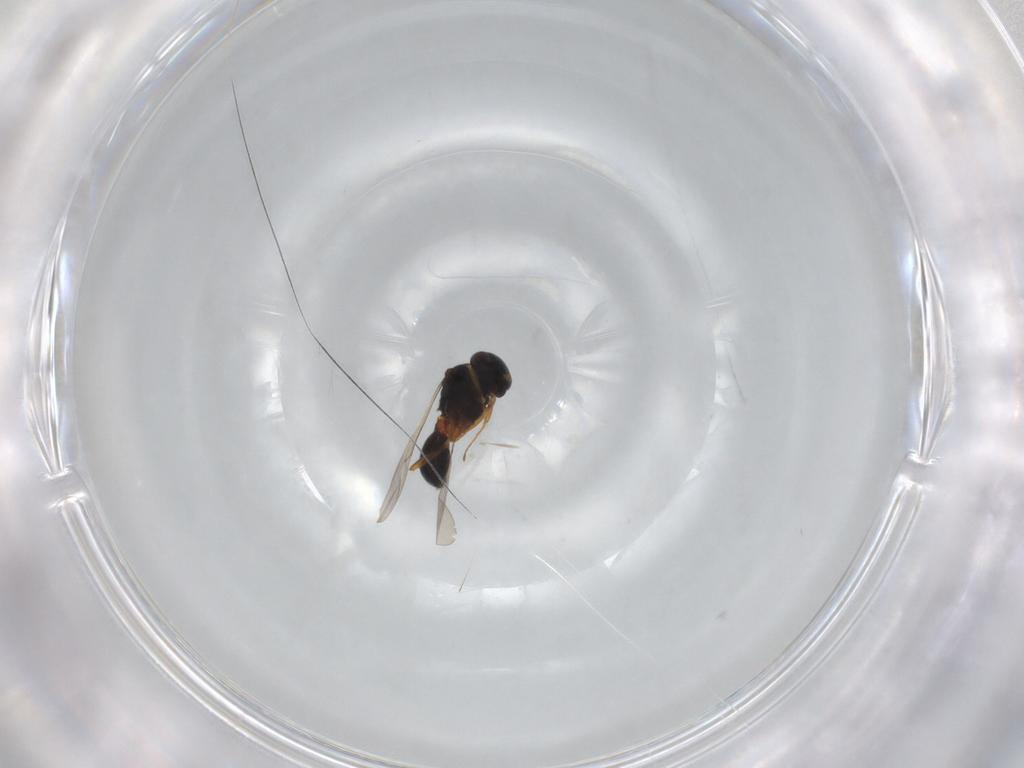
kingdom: Animalia
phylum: Arthropoda
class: Insecta
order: Hymenoptera
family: Scelionidae
